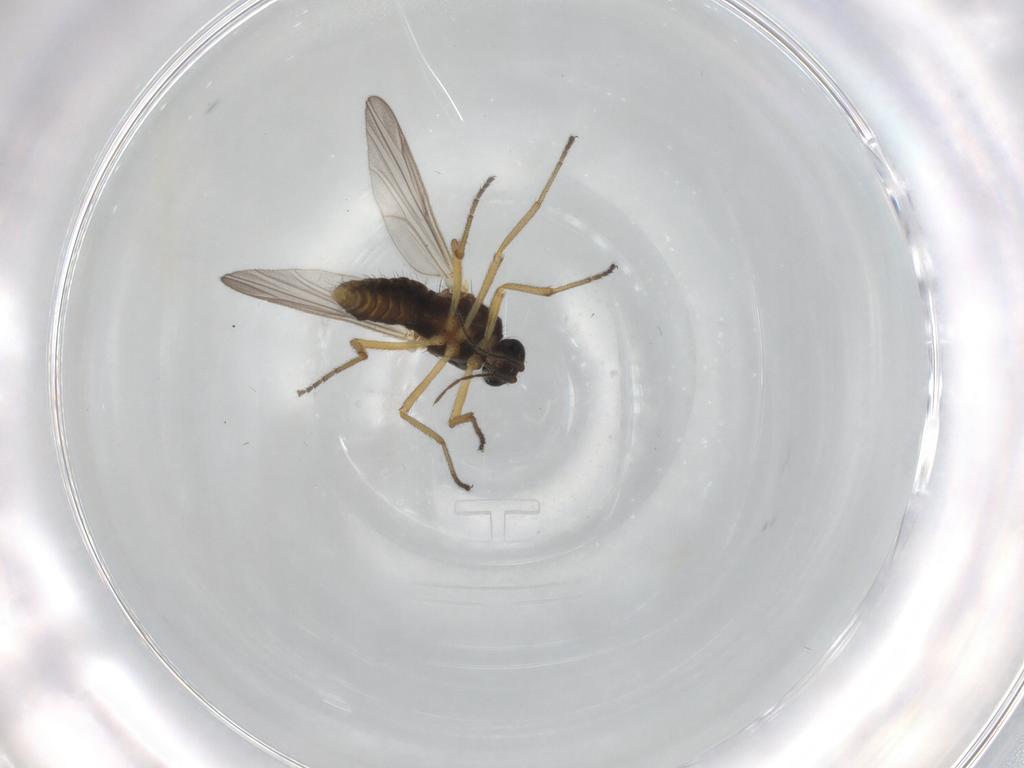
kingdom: Animalia
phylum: Arthropoda
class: Insecta
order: Diptera
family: Ceratopogonidae
